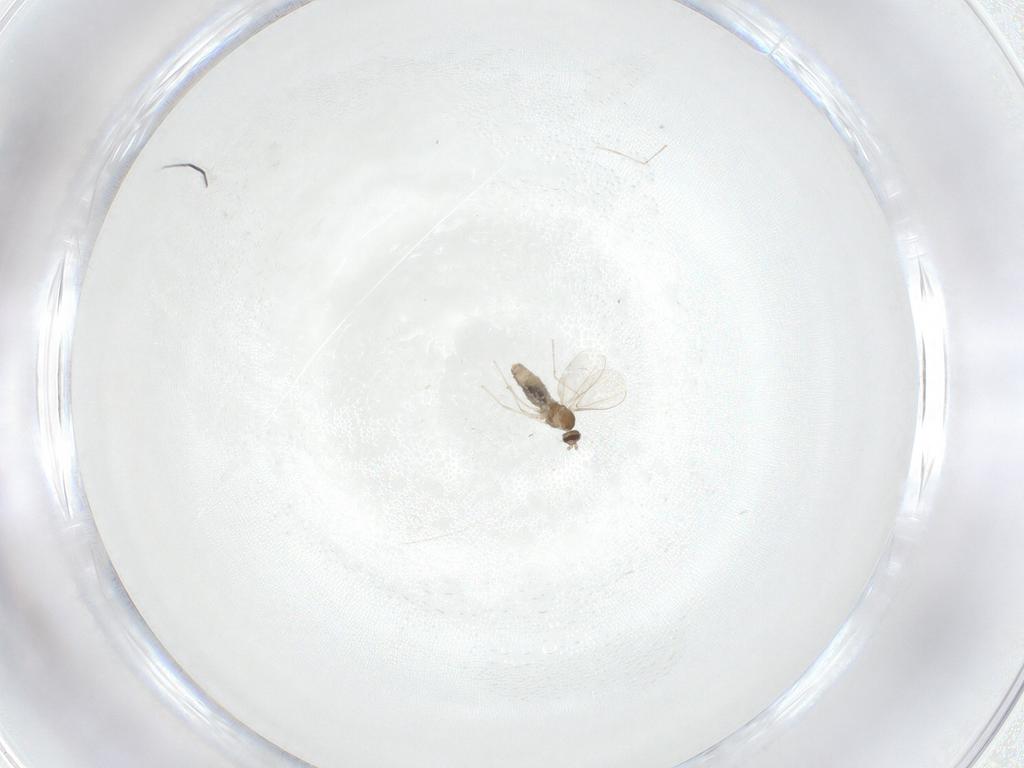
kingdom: Animalia
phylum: Arthropoda
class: Insecta
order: Diptera
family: Cecidomyiidae
